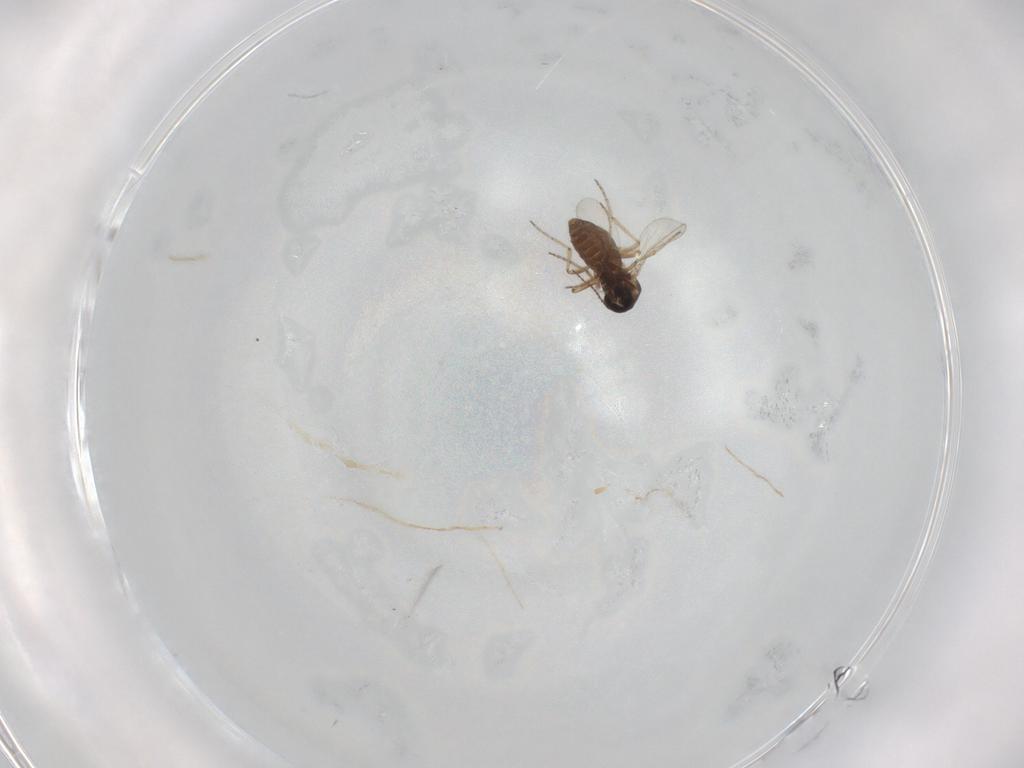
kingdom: Animalia
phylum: Arthropoda
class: Insecta
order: Diptera
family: Ceratopogonidae
